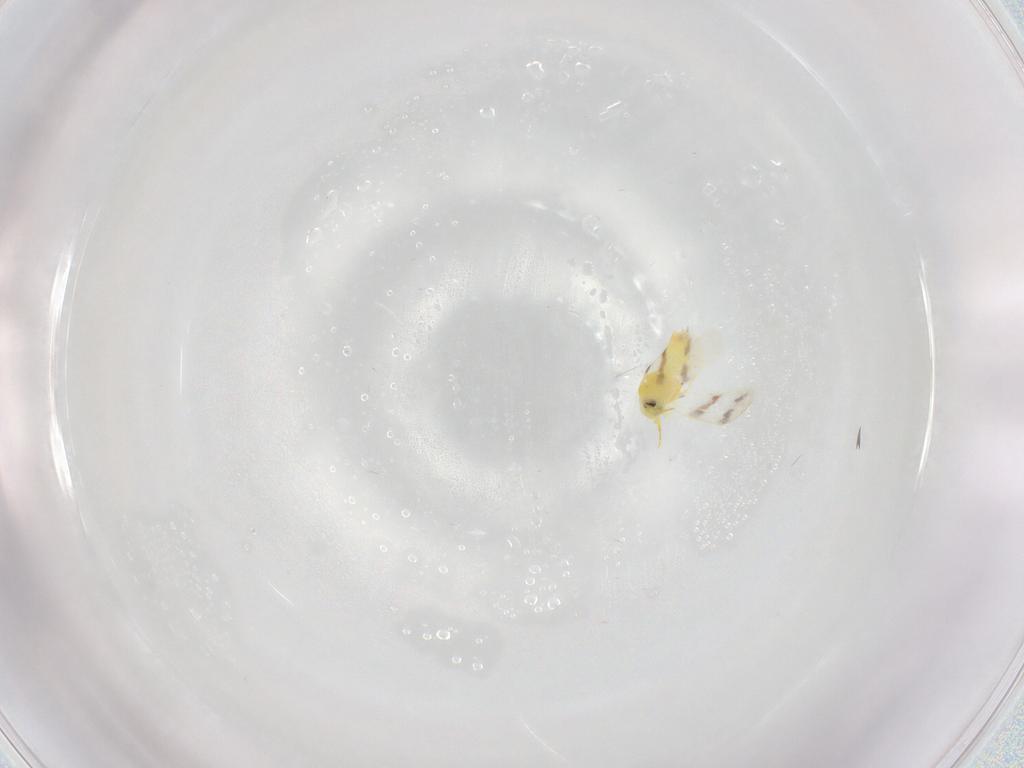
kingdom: Animalia
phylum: Arthropoda
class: Insecta
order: Hemiptera
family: Aleyrodidae
